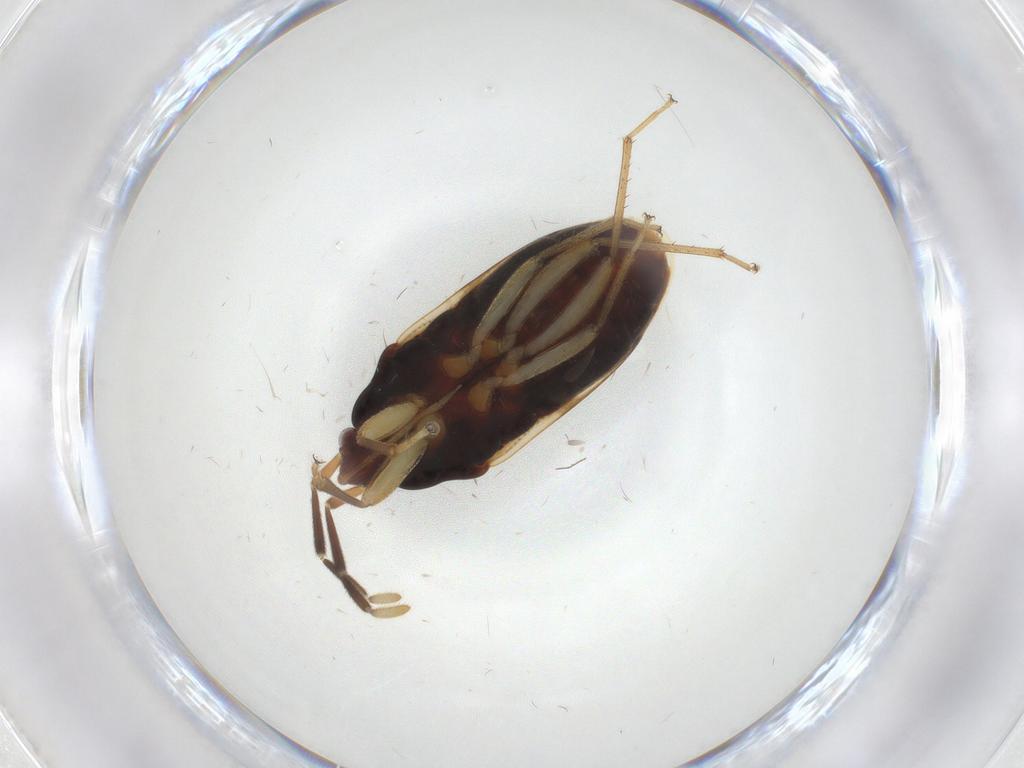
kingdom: Animalia
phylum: Arthropoda
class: Insecta
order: Hemiptera
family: Rhyparochromidae
